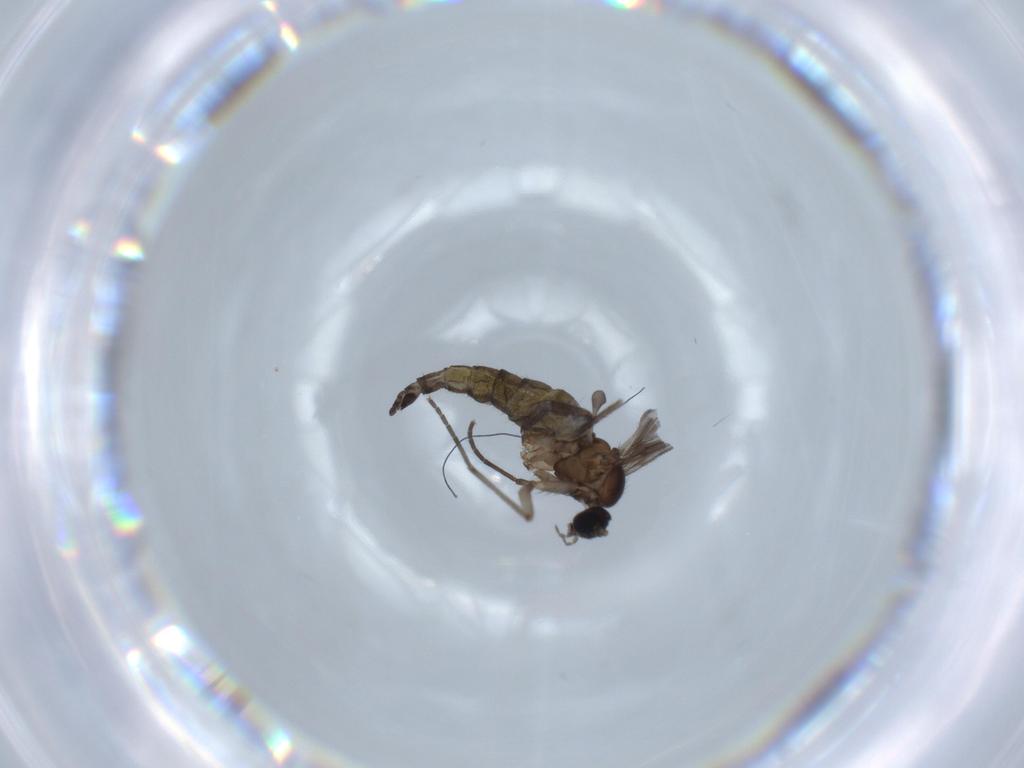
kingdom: Animalia
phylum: Arthropoda
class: Insecta
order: Diptera
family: Sciaridae
